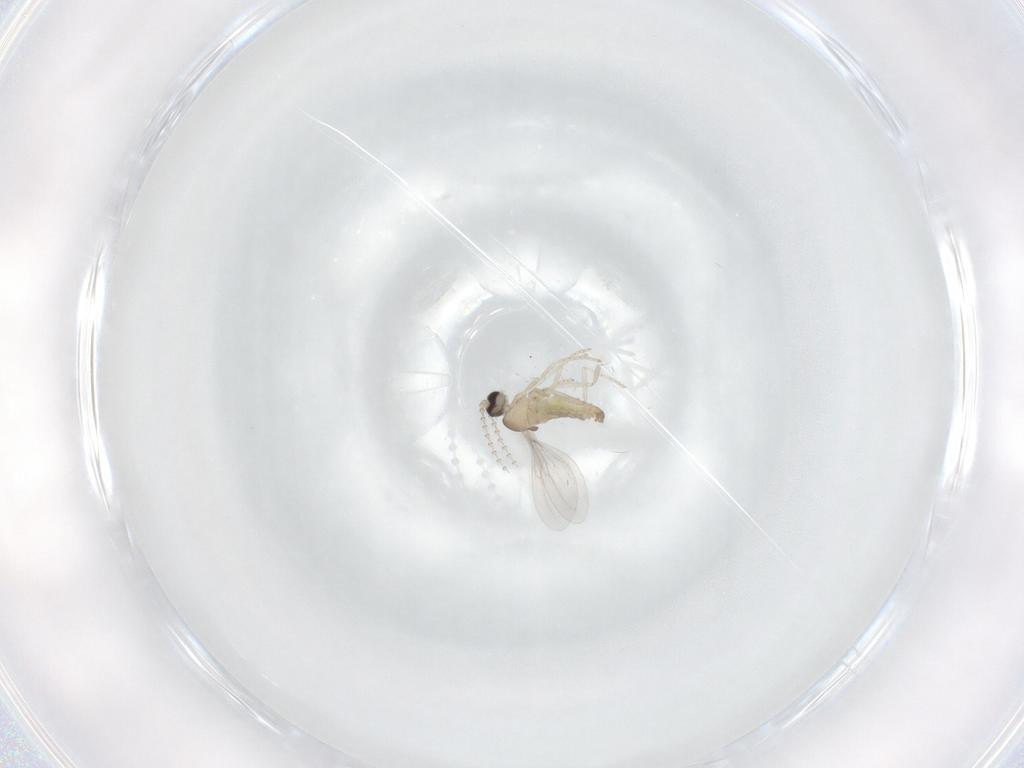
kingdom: Animalia
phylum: Arthropoda
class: Insecta
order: Diptera
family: Cecidomyiidae
